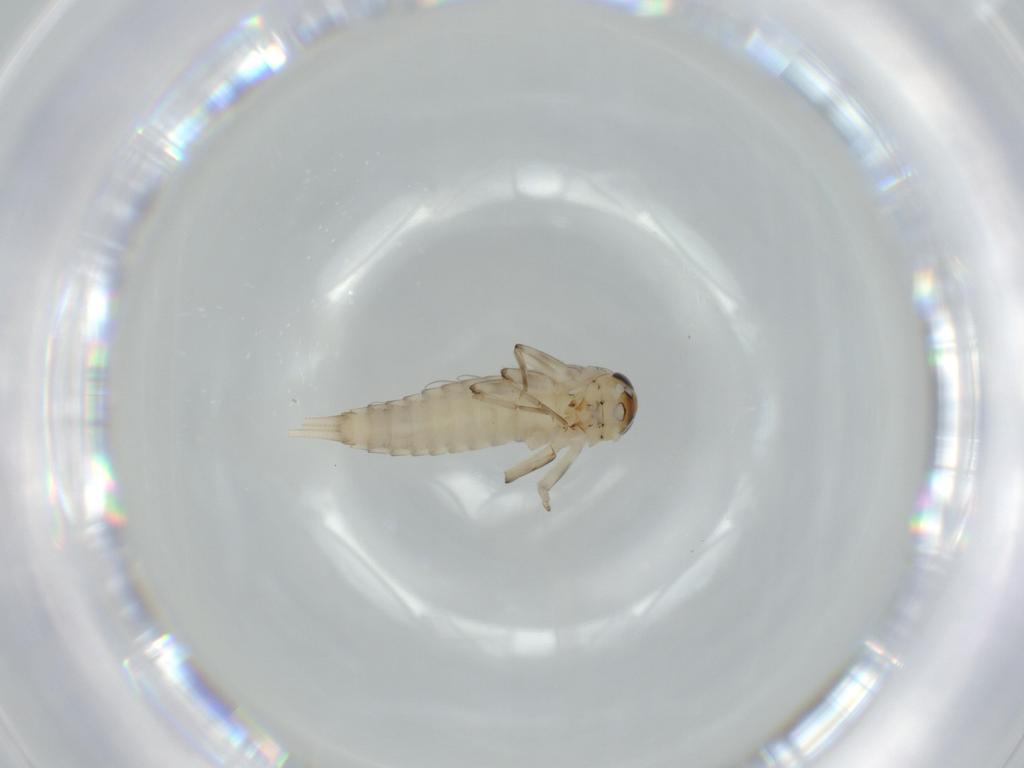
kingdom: Animalia
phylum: Arthropoda
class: Insecta
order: Ephemeroptera
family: Baetidae
